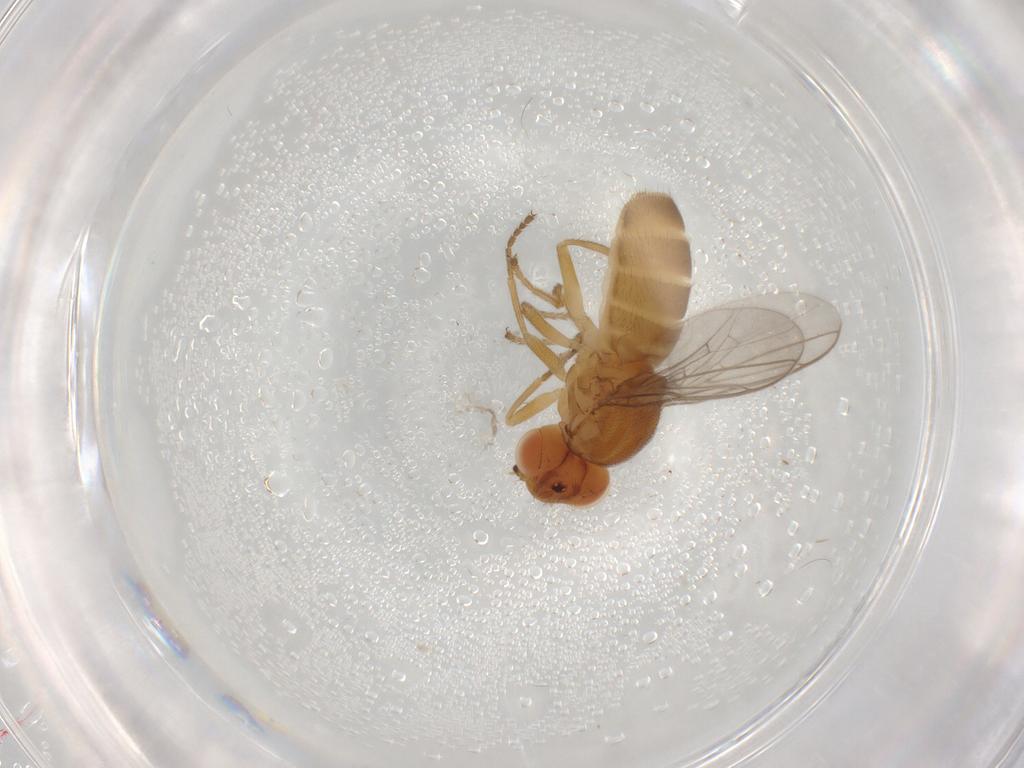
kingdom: Animalia
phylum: Arthropoda
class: Insecta
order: Diptera
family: Chloropidae
